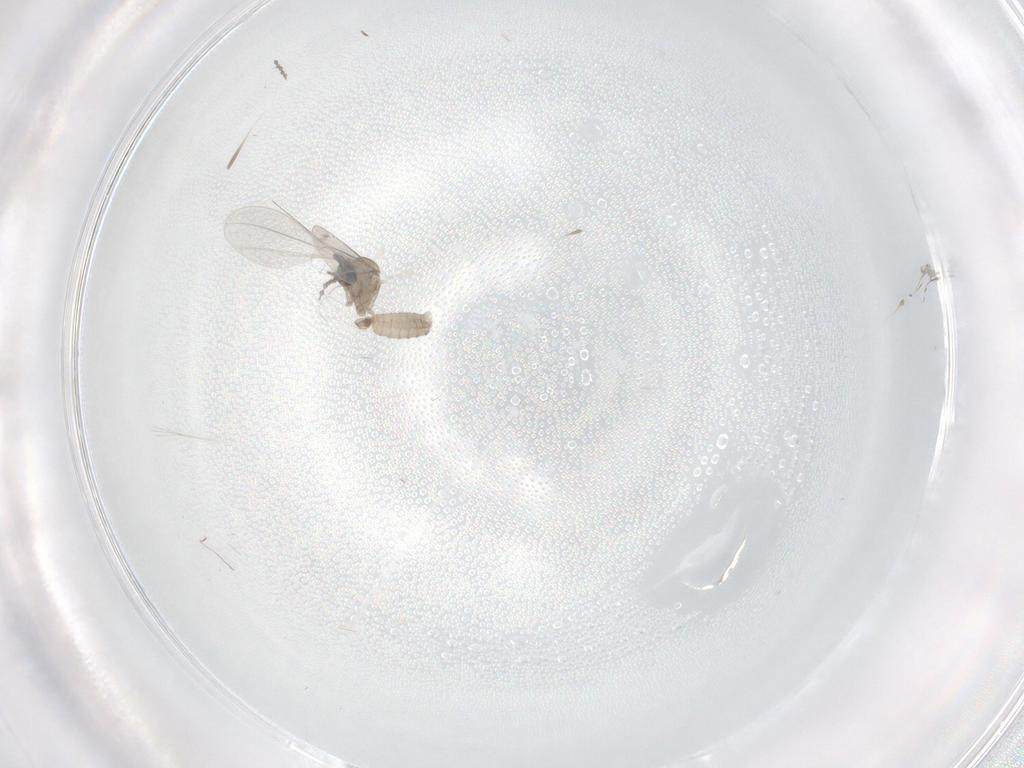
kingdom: Animalia
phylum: Arthropoda
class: Insecta
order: Diptera
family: Cecidomyiidae
